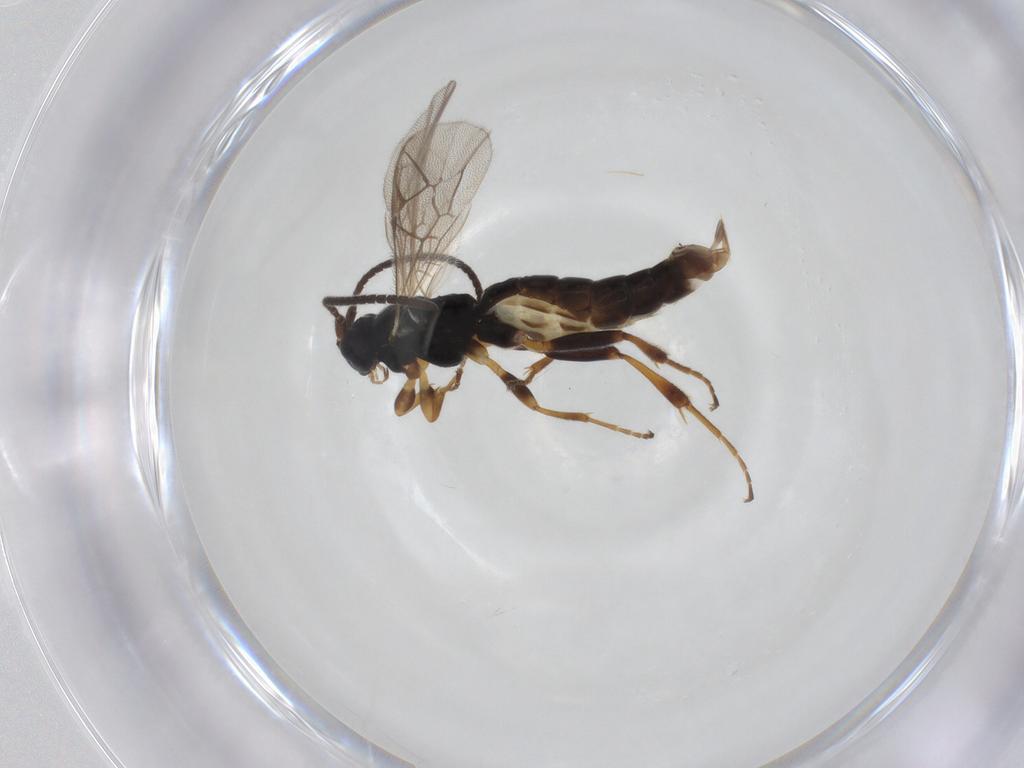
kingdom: Animalia
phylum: Arthropoda
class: Insecta
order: Hymenoptera
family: Ichneumonidae
